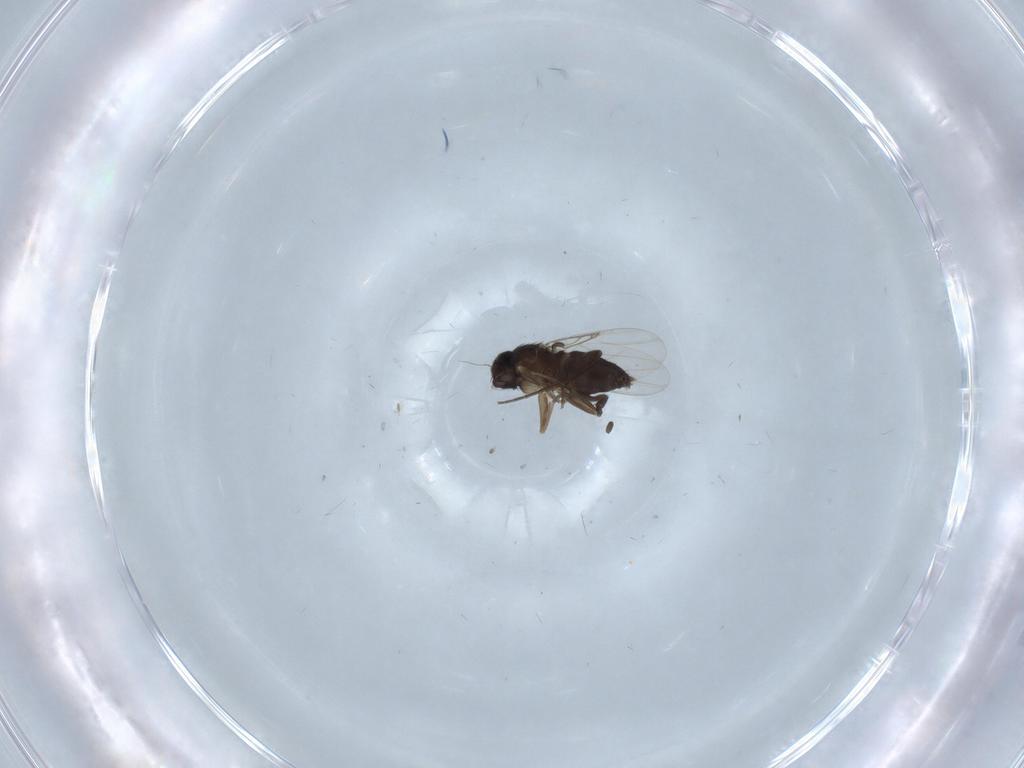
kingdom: Animalia
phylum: Arthropoda
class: Insecta
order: Diptera
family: Phoridae
